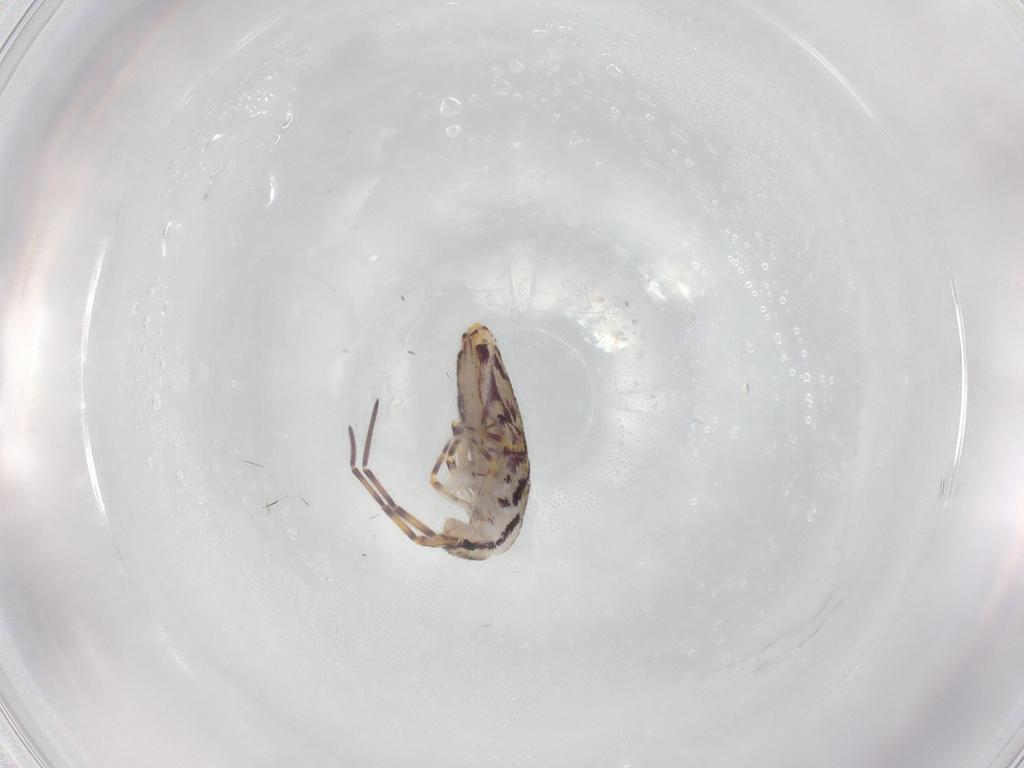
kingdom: Animalia
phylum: Arthropoda
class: Collembola
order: Entomobryomorpha
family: Entomobryidae
